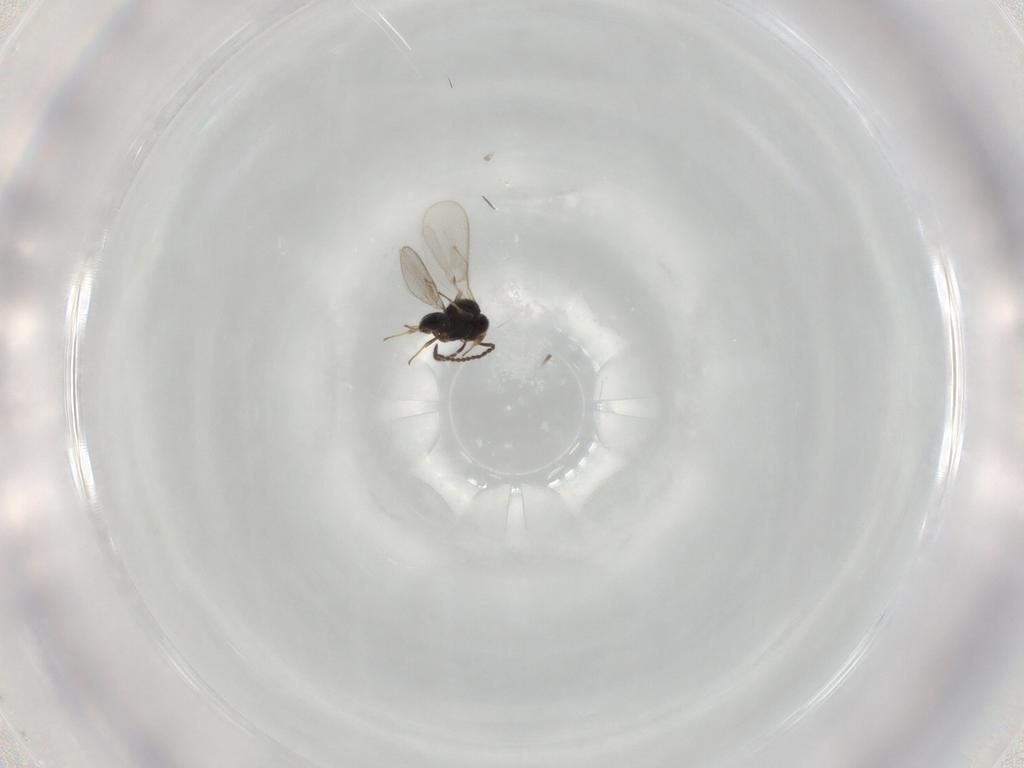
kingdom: Animalia
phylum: Arthropoda
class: Insecta
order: Hymenoptera
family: Scelionidae
